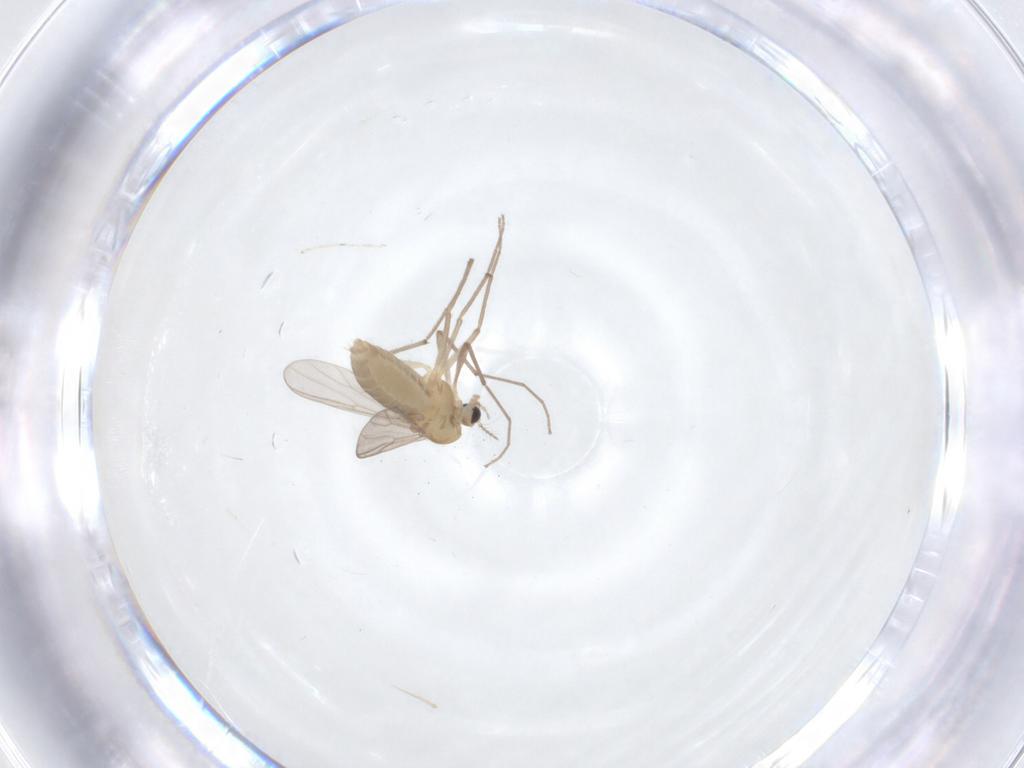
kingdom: Animalia
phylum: Arthropoda
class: Insecta
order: Diptera
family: Chironomidae
